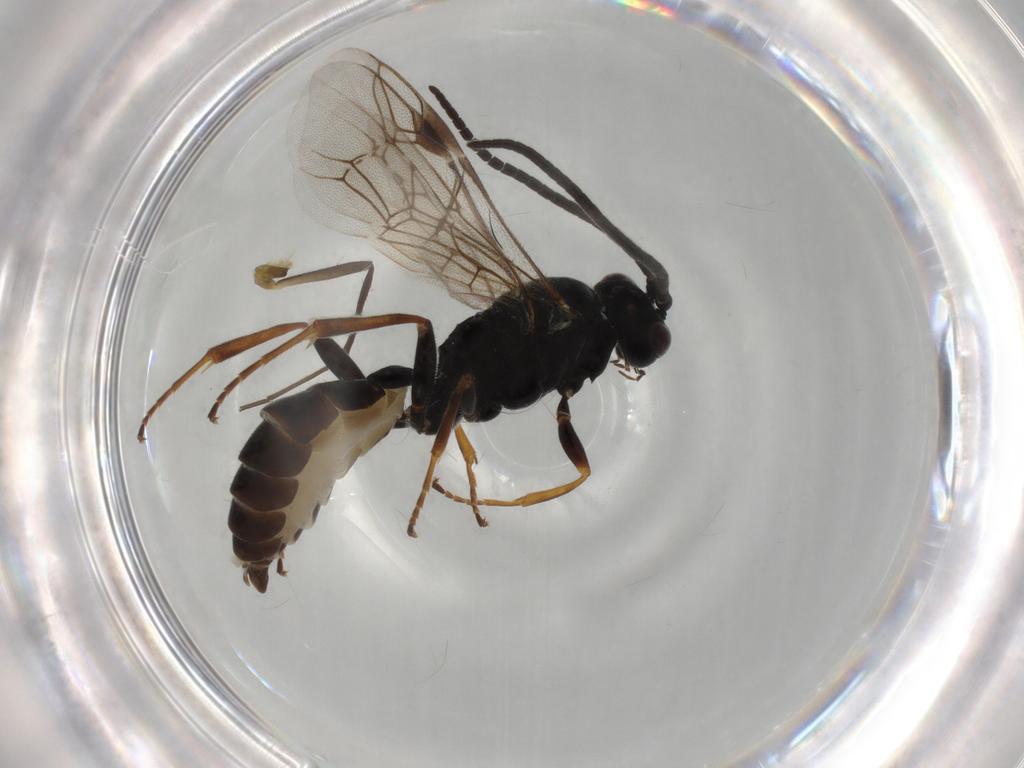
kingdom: Animalia
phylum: Arthropoda
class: Insecta
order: Hymenoptera
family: Ichneumonidae
